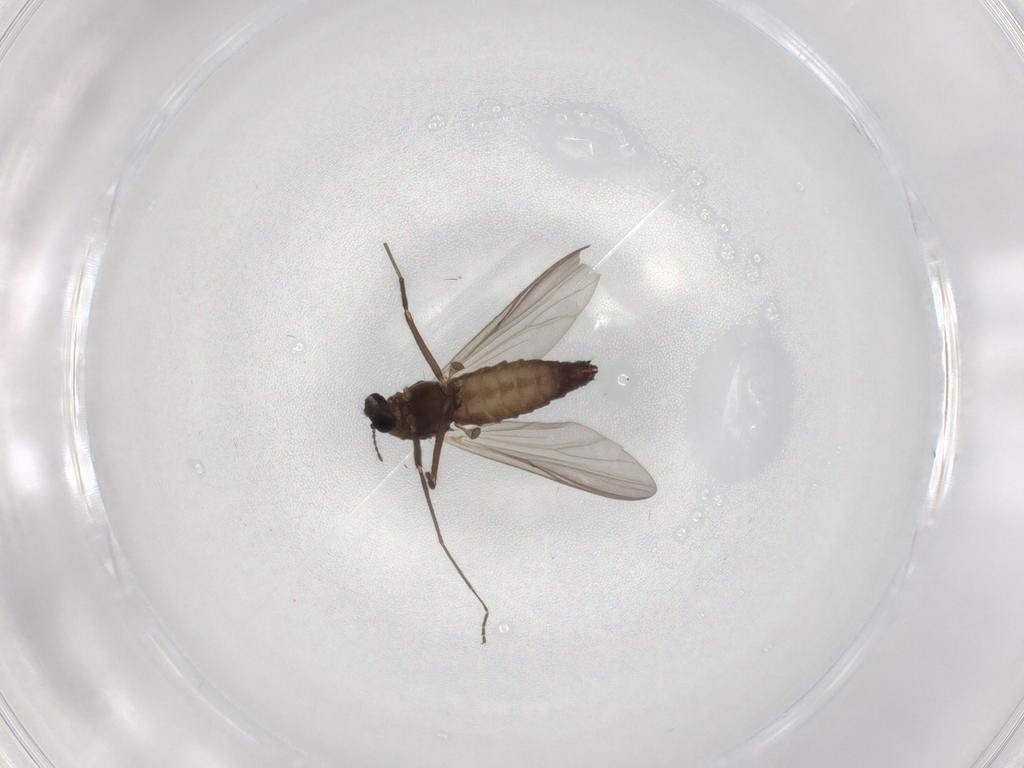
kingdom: Animalia
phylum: Arthropoda
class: Insecta
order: Diptera
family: Chironomidae
